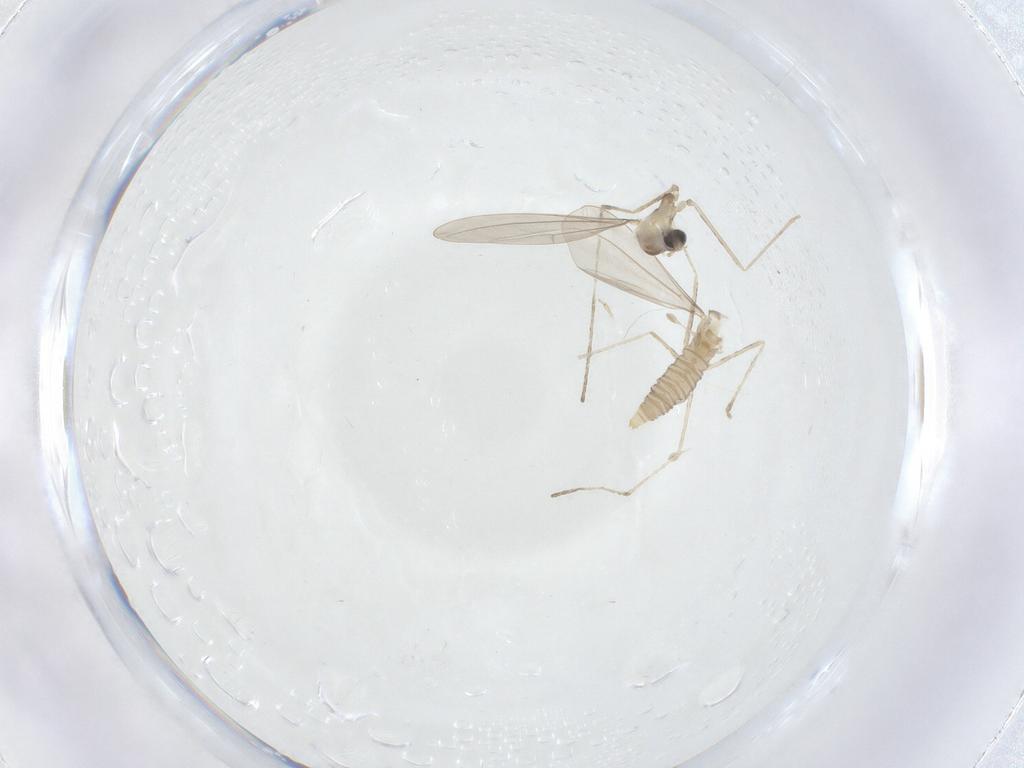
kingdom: Animalia
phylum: Arthropoda
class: Insecta
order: Diptera
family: Cecidomyiidae
